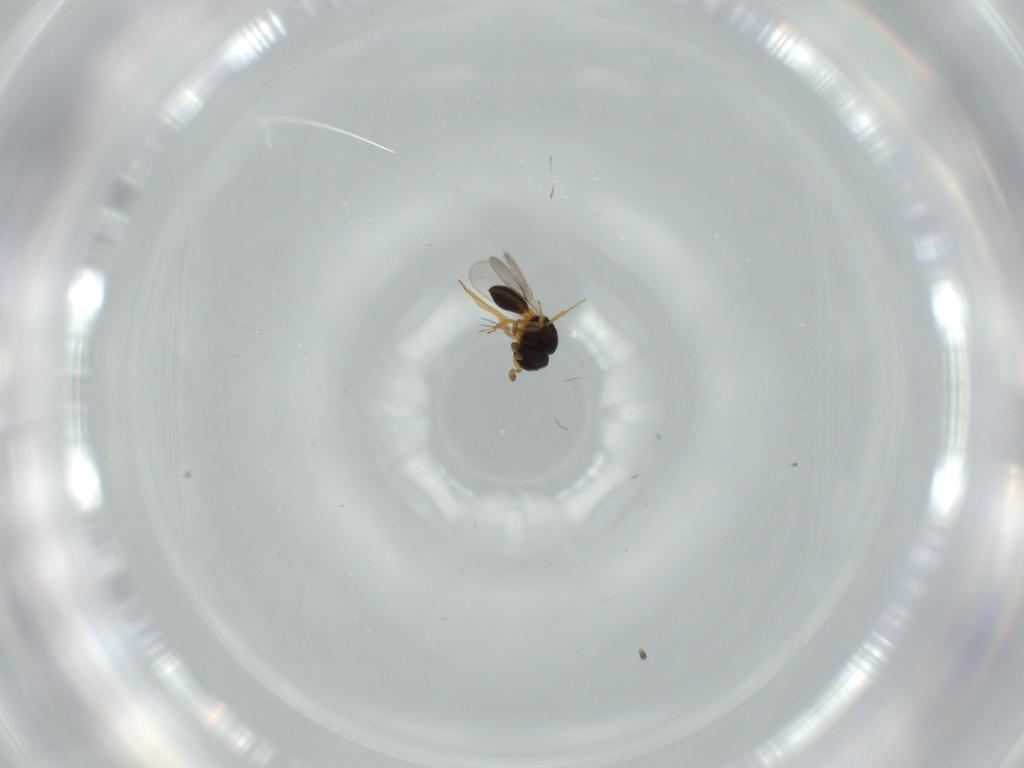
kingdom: Animalia
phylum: Arthropoda
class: Insecta
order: Hymenoptera
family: Scelionidae
